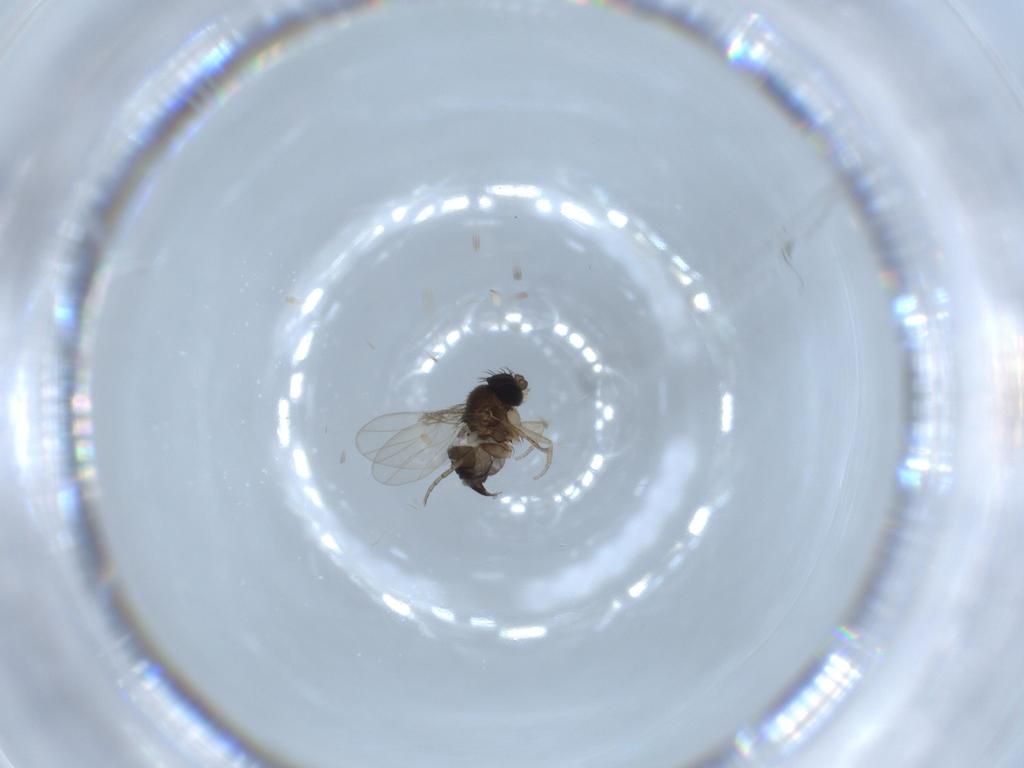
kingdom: Animalia
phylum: Arthropoda
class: Insecta
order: Diptera
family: Phoridae
